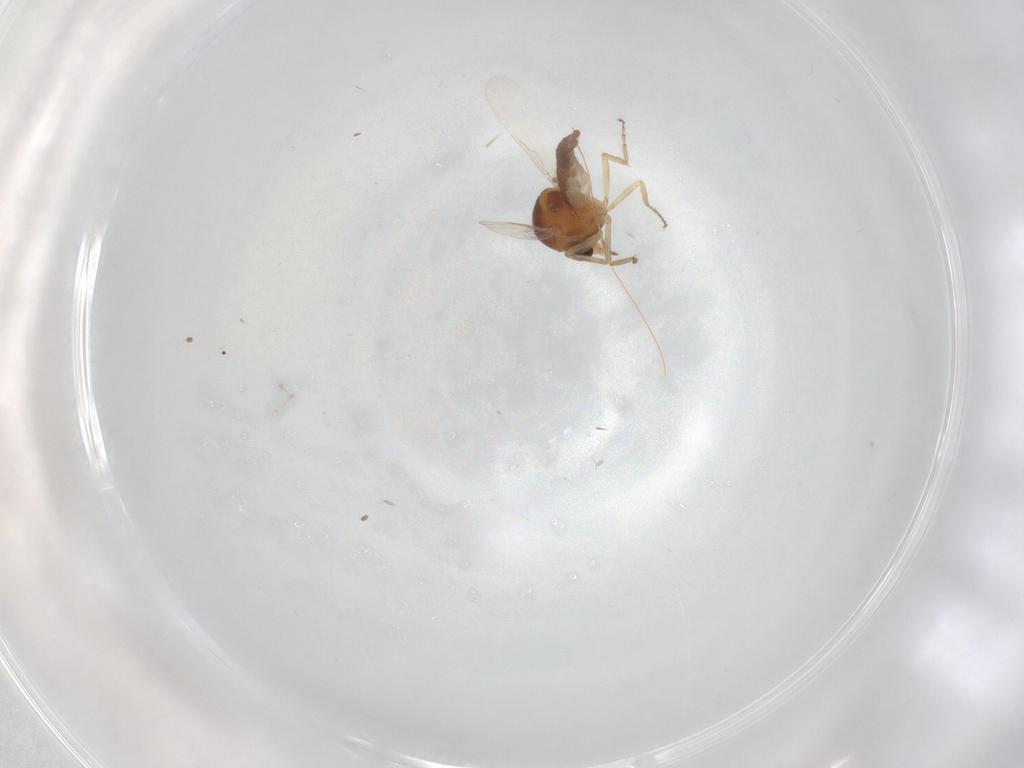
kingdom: Animalia
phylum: Arthropoda
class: Insecta
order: Diptera
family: Ceratopogonidae
